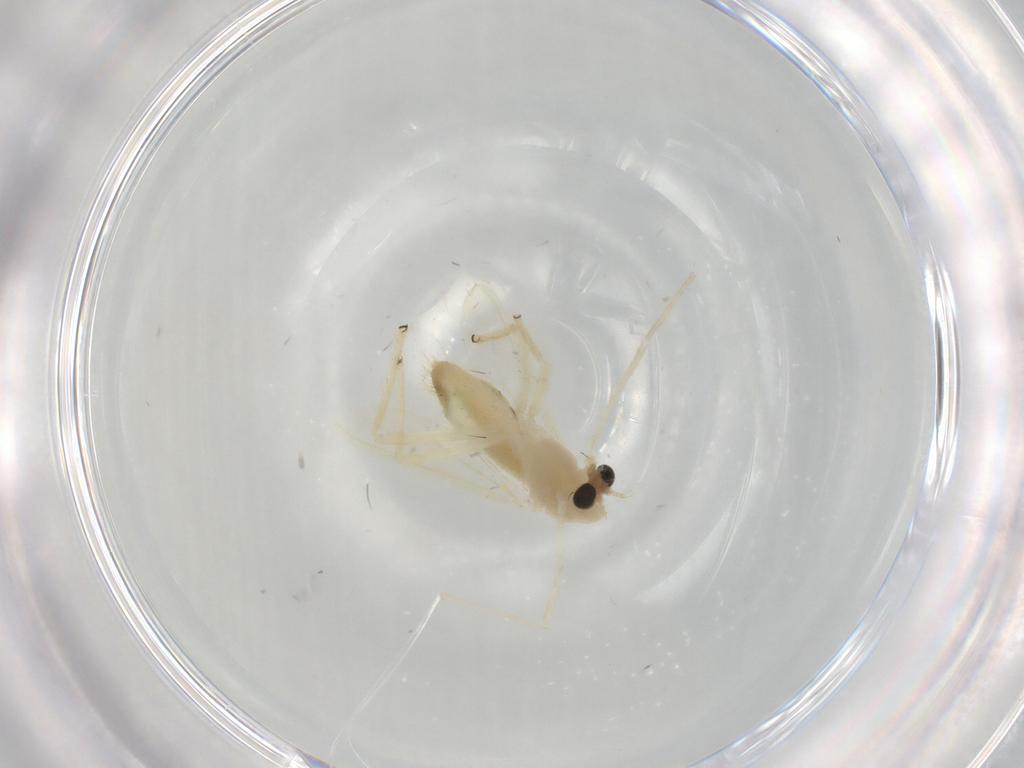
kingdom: Animalia
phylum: Arthropoda
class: Insecta
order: Diptera
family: Chironomidae
